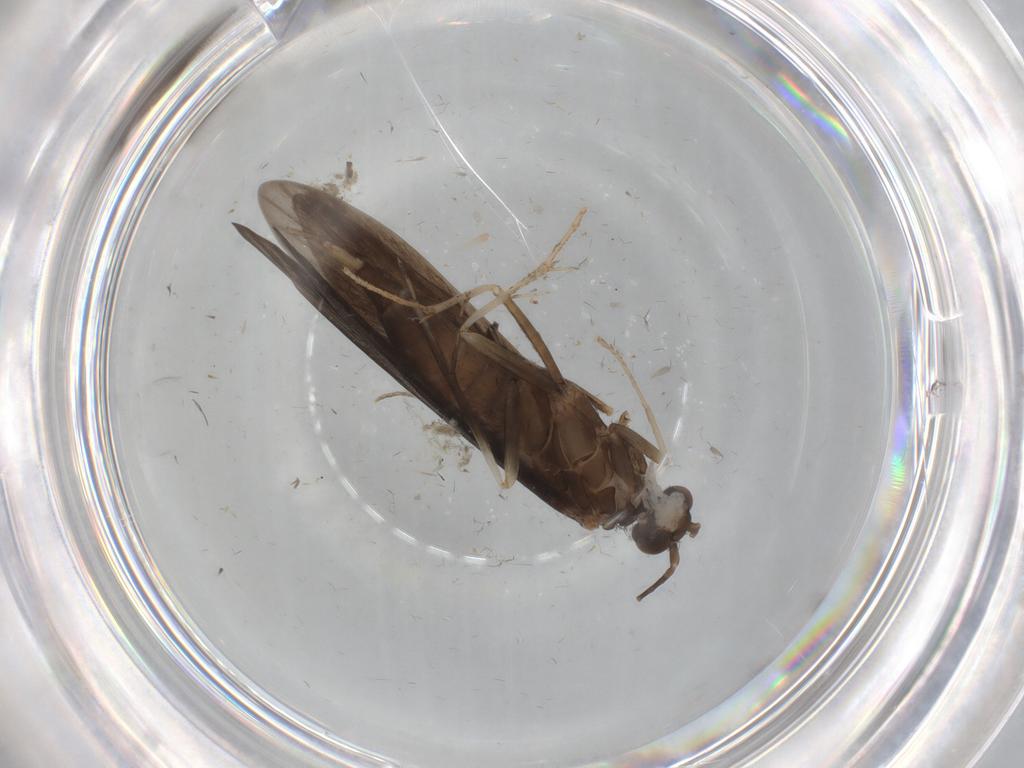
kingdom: Animalia
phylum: Arthropoda
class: Insecta
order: Trichoptera
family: Xiphocentronidae
